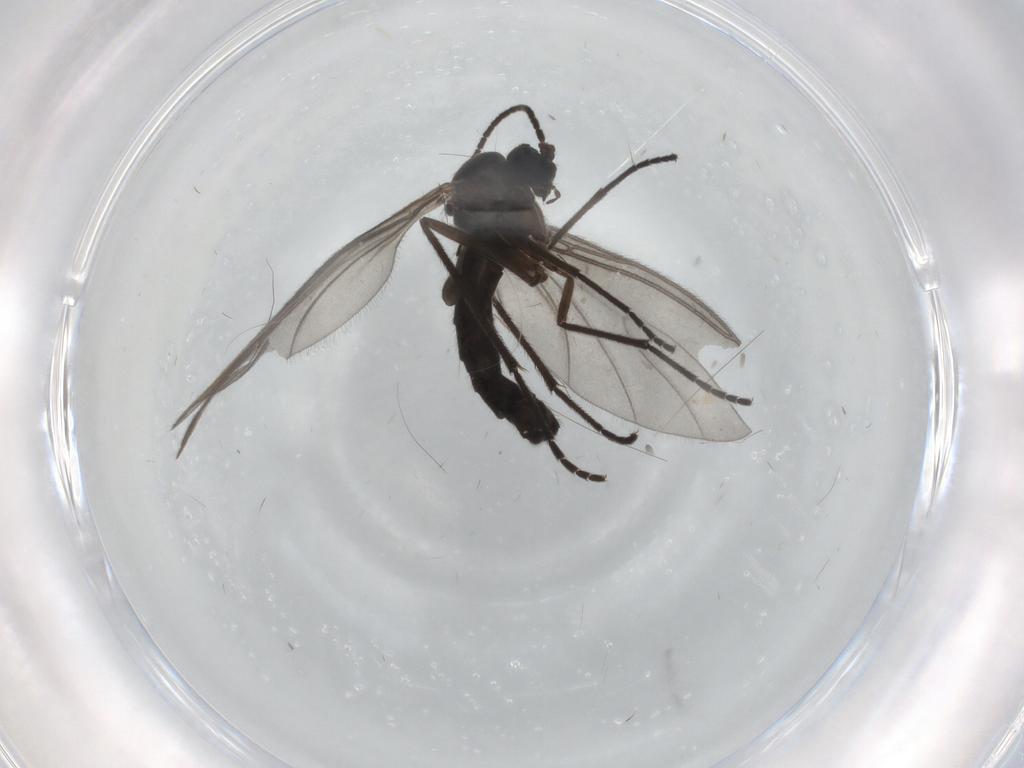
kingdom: Animalia
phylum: Arthropoda
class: Insecta
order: Diptera
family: Sciaridae
